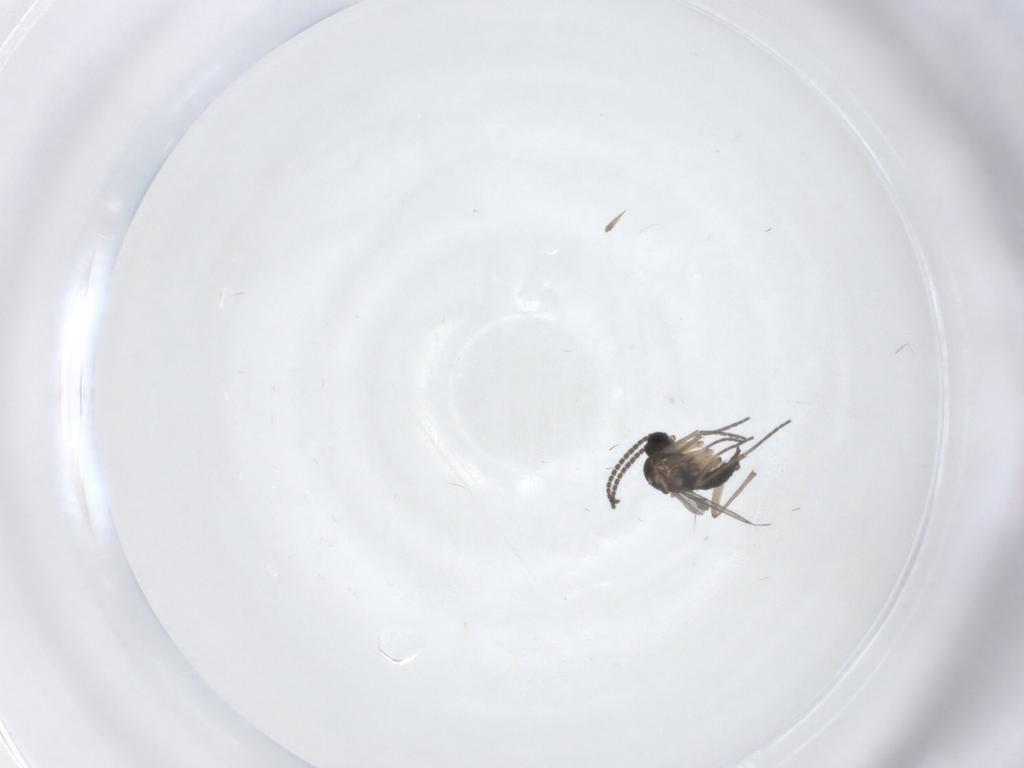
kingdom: Animalia
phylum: Arthropoda
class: Insecta
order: Diptera
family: Sciaridae
